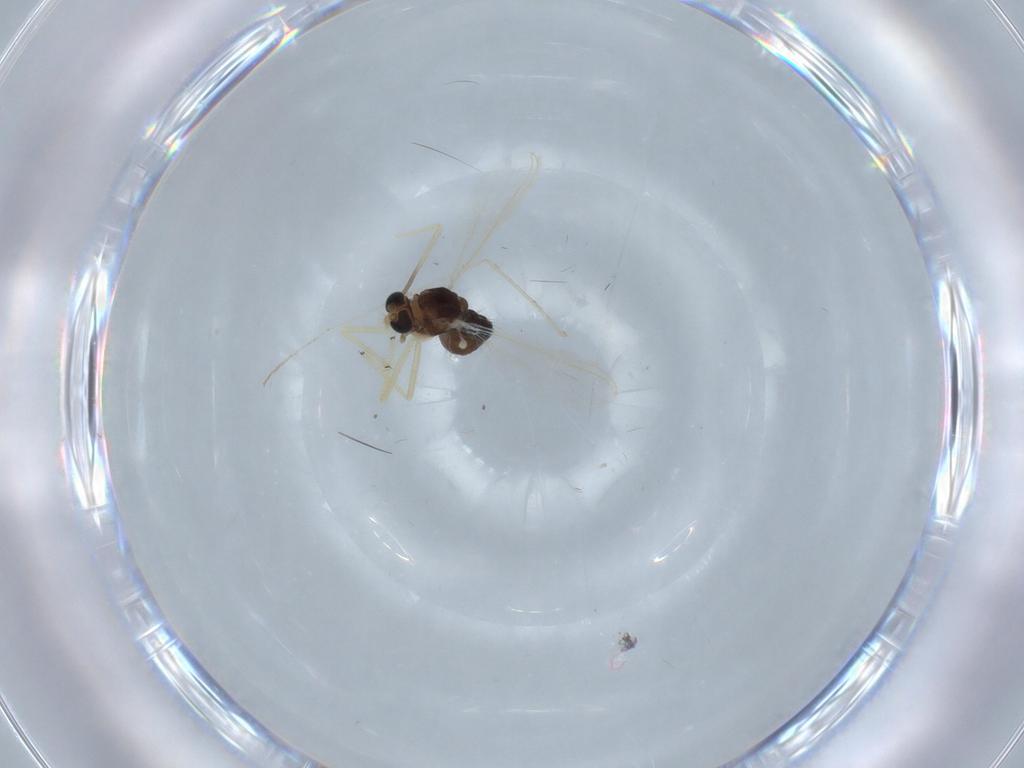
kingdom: Animalia
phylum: Arthropoda
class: Insecta
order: Diptera
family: Chironomidae
